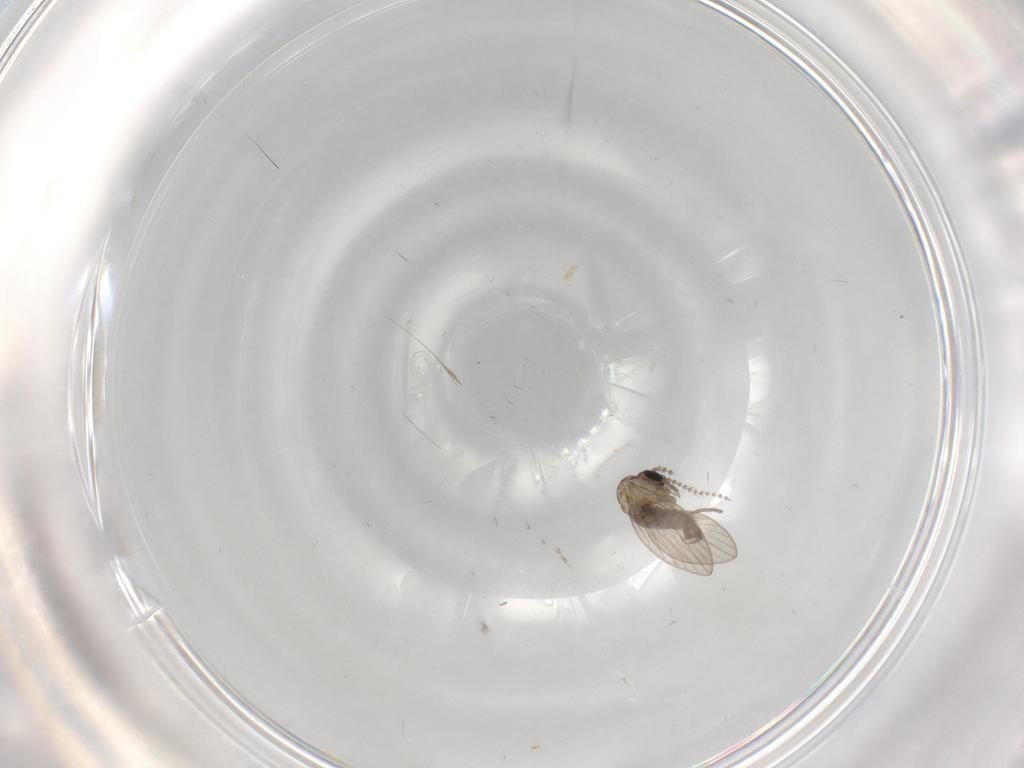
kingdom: Animalia
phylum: Arthropoda
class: Insecta
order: Diptera
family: Psychodidae
